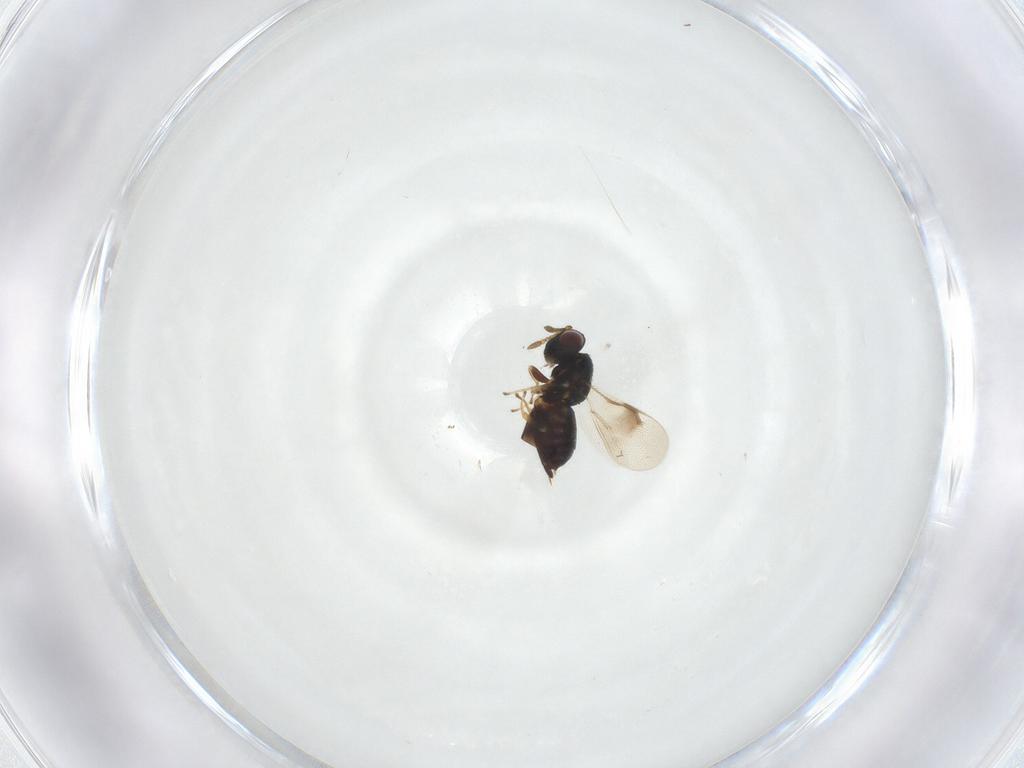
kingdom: Animalia
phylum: Arthropoda
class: Insecta
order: Hymenoptera
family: Pteromalidae
